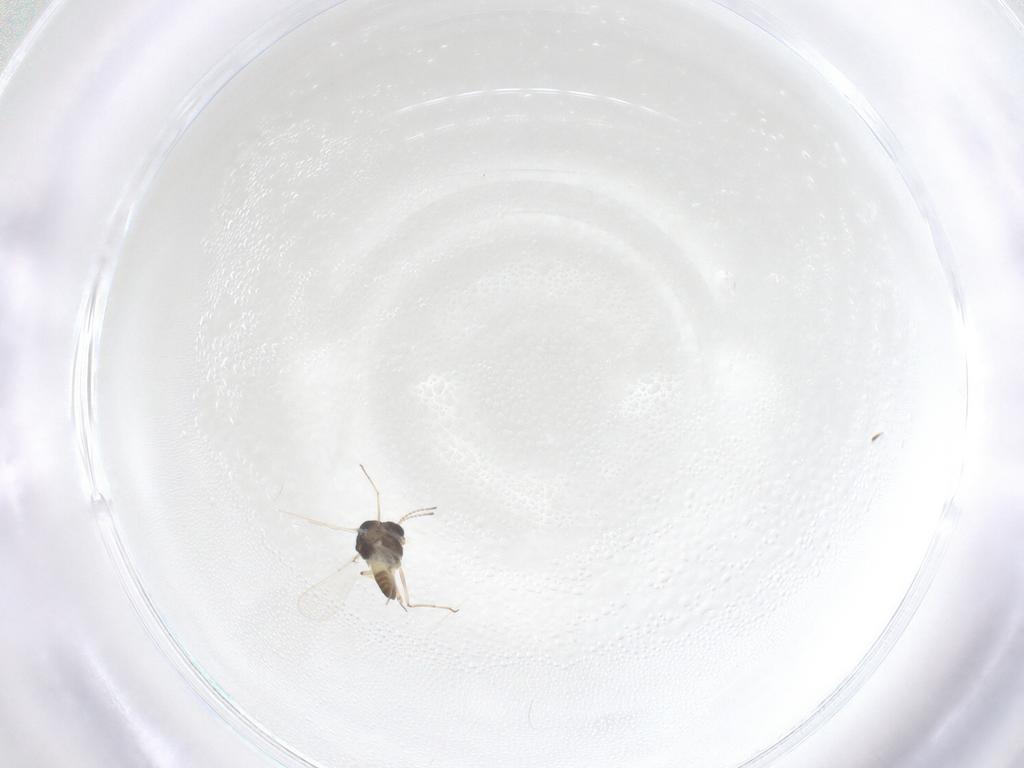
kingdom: Animalia
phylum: Arthropoda
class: Insecta
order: Diptera
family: Chironomidae
